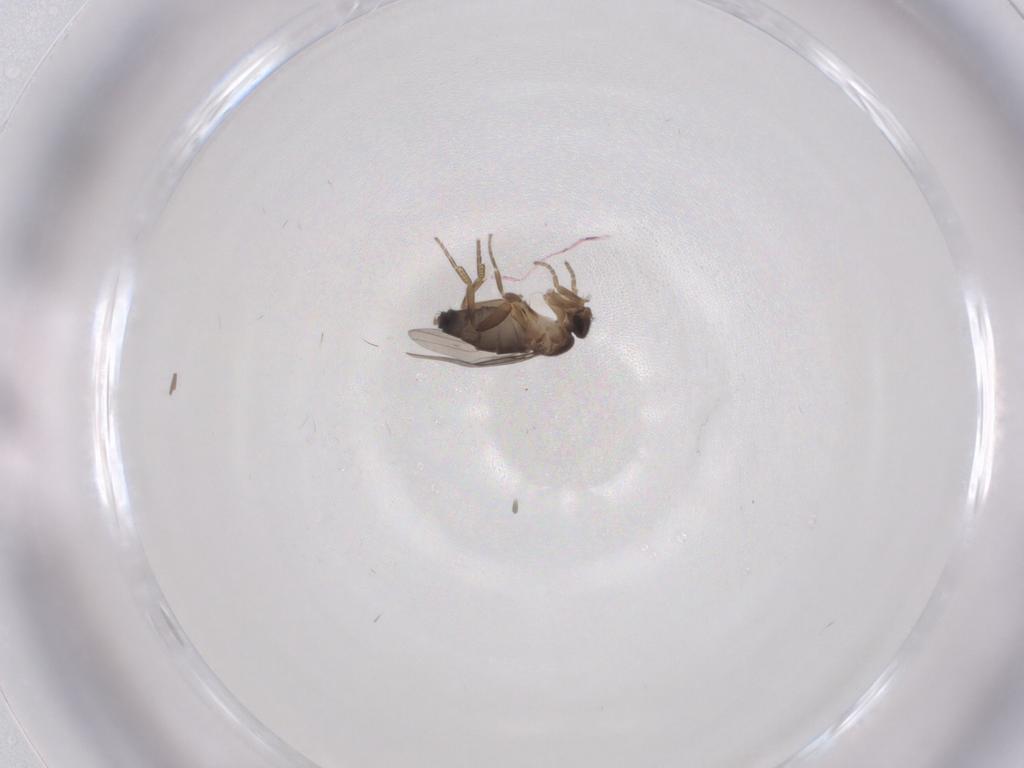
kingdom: Animalia
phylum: Arthropoda
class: Insecta
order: Diptera
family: Phoridae
